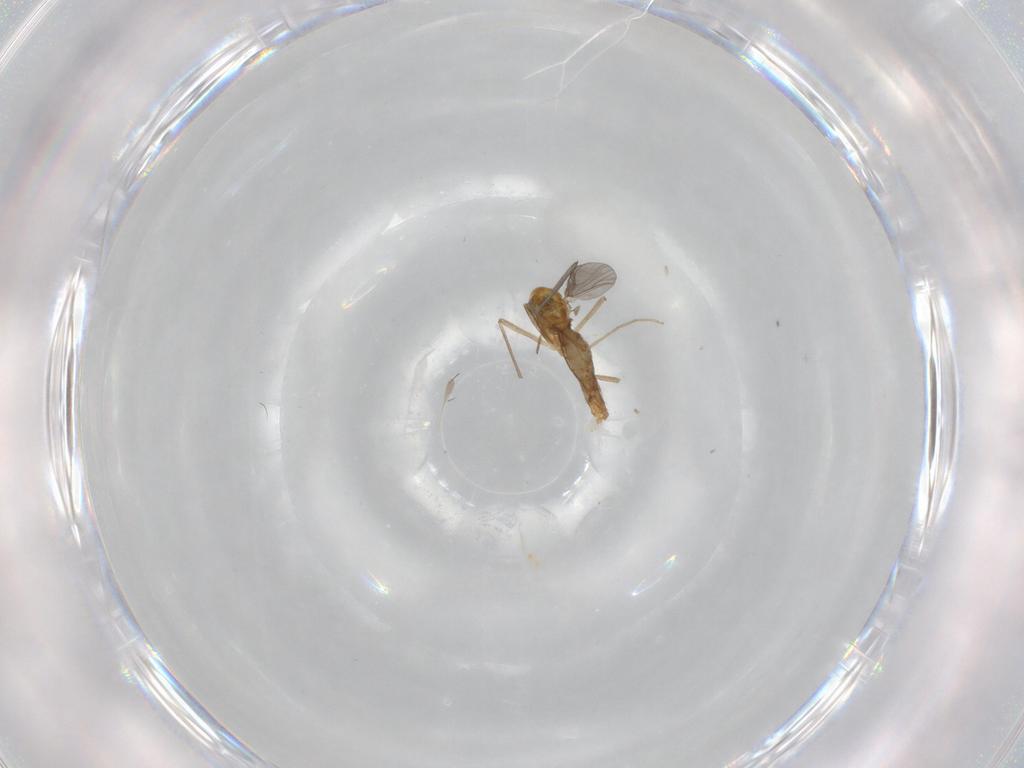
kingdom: Animalia
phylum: Arthropoda
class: Insecta
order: Diptera
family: Chironomidae
